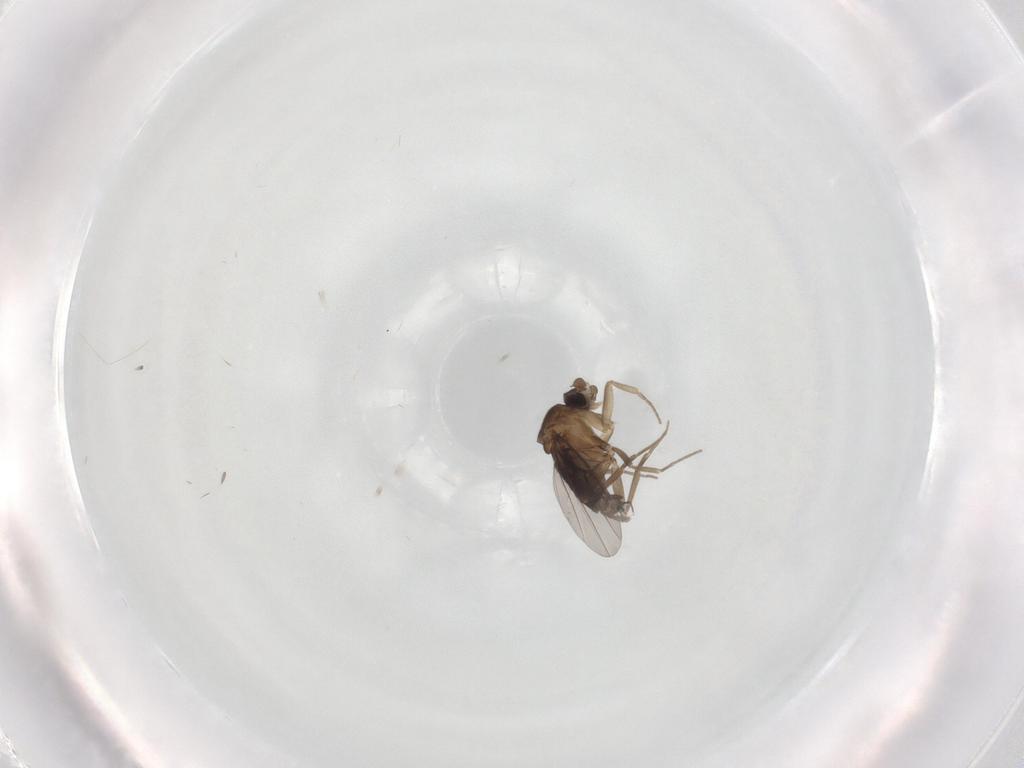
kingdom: Animalia
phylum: Arthropoda
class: Insecta
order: Diptera
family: Phoridae
